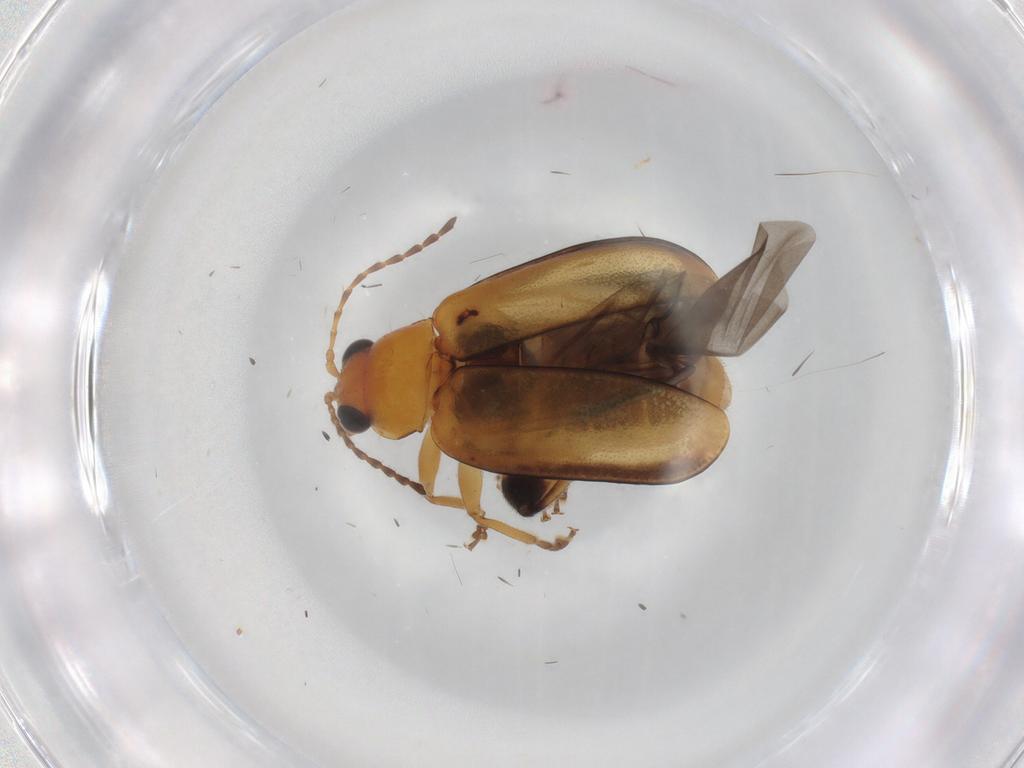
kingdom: Animalia
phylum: Arthropoda
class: Insecta
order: Coleoptera
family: Chrysomelidae
